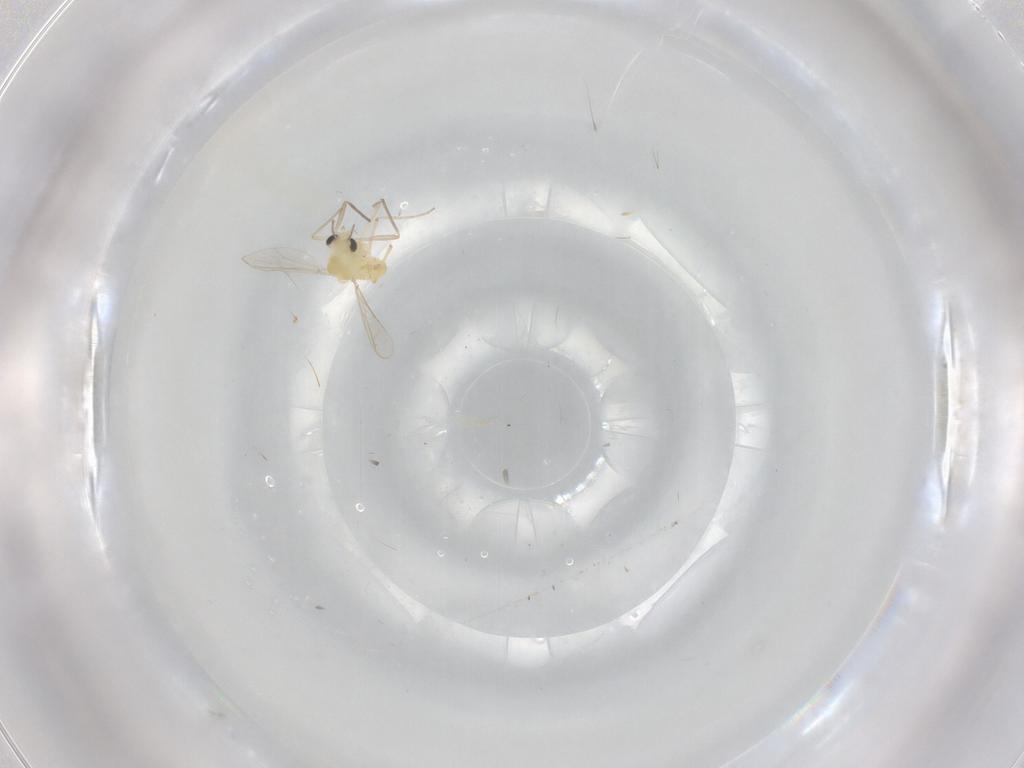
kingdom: Animalia
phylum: Arthropoda
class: Insecta
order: Diptera
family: Chironomidae
